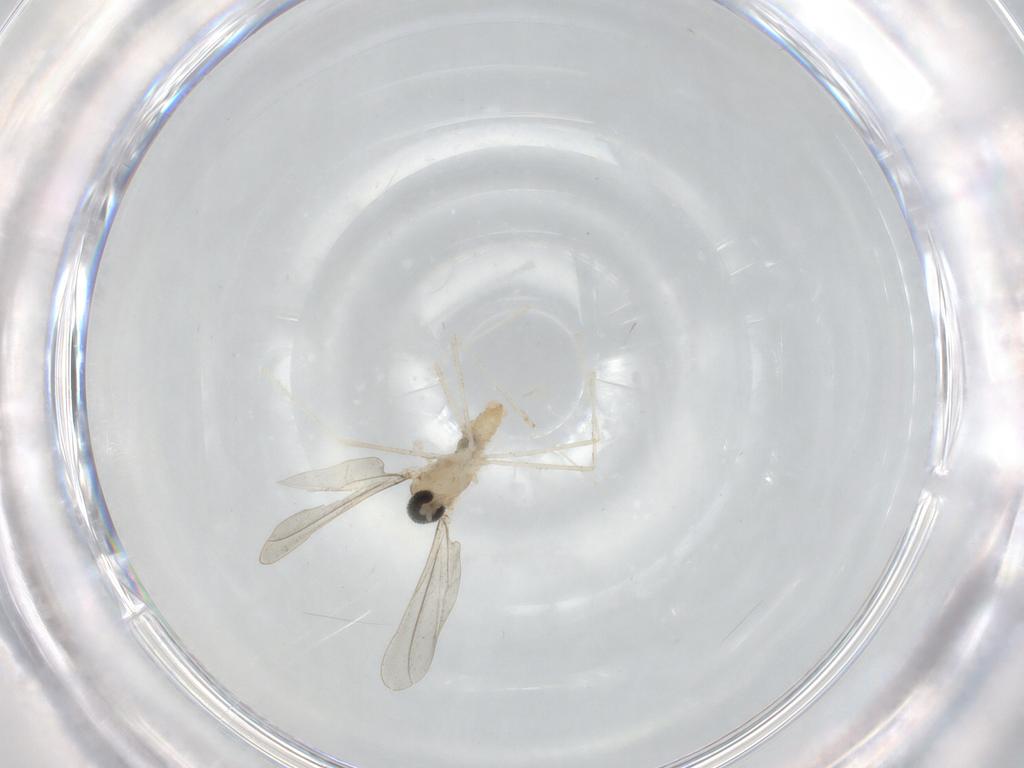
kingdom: Animalia
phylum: Arthropoda
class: Insecta
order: Diptera
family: Cecidomyiidae
